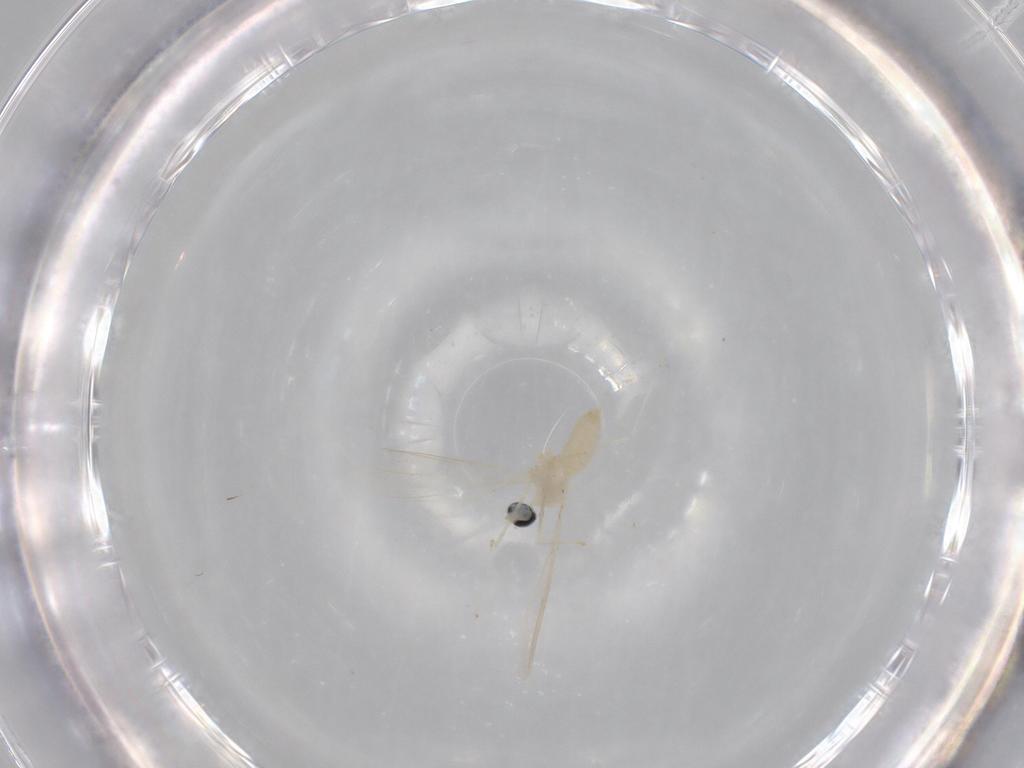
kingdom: Animalia
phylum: Arthropoda
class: Insecta
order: Diptera
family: Cecidomyiidae
